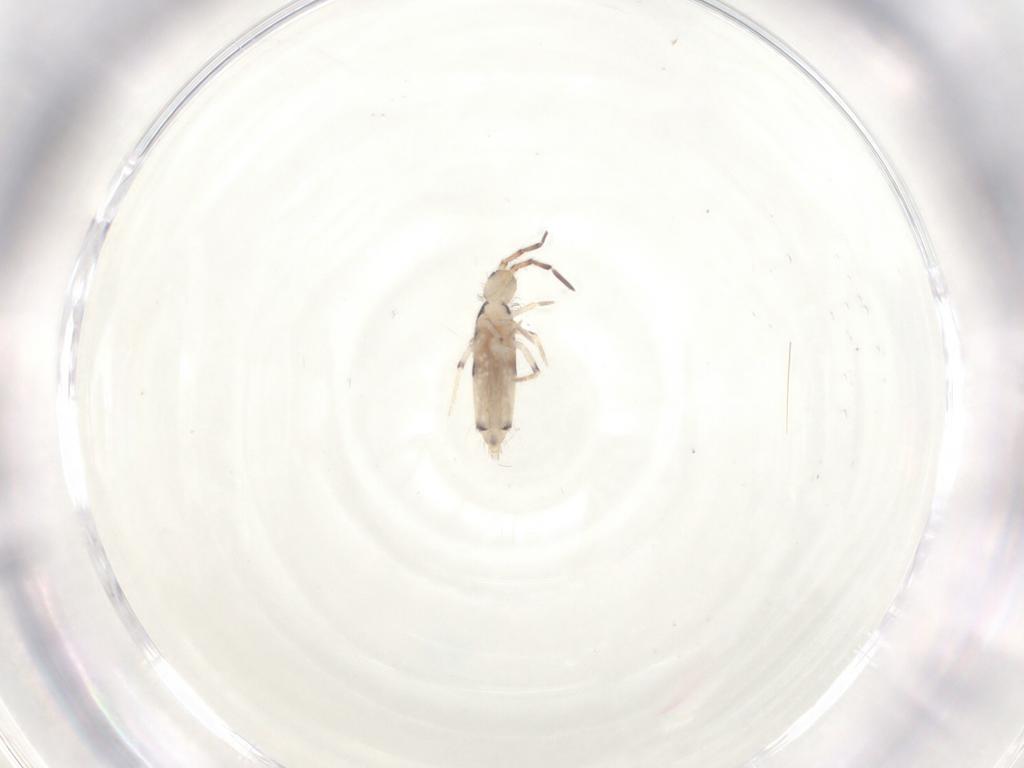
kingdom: Animalia
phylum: Arthropoda
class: Collembola
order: Entomobryomorpha
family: Entomobryidae
